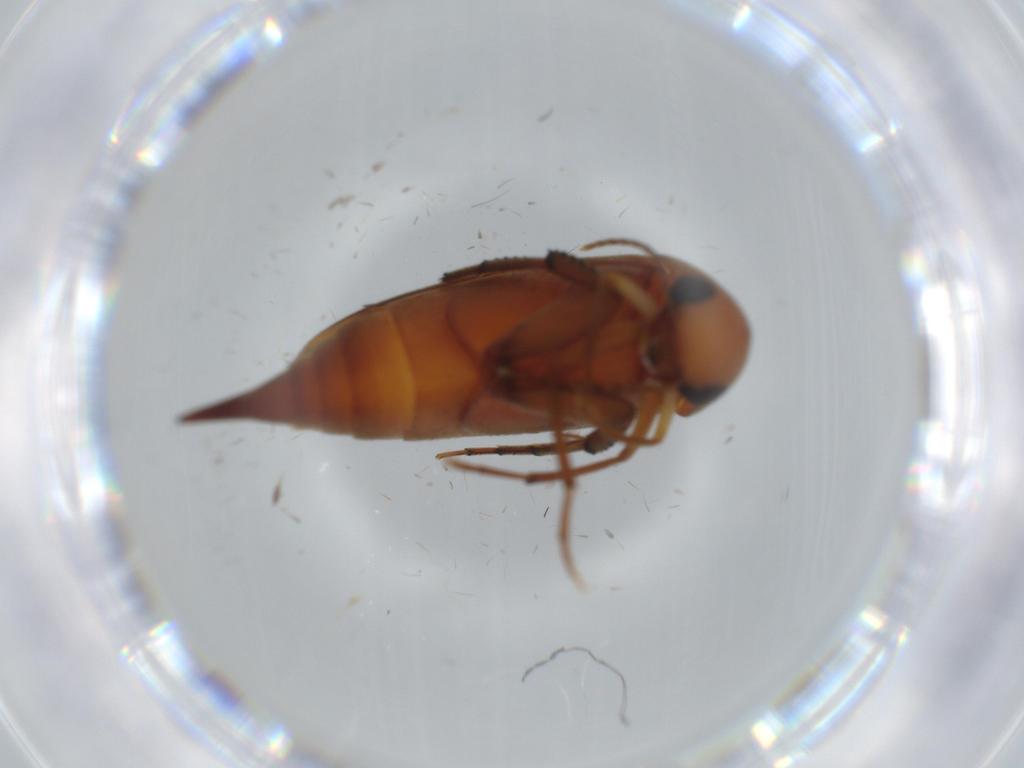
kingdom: Animalia
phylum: Arthropoda
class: Insecta
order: Coleoptera
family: Mordellidae
